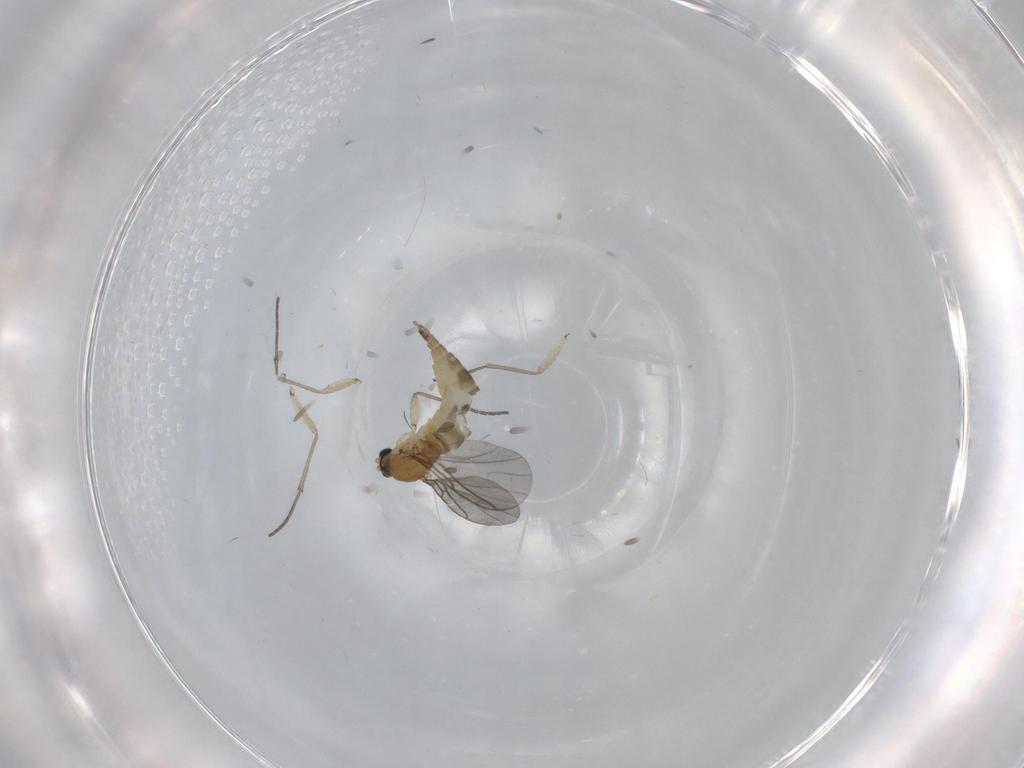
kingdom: Animalia
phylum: Arthropoda
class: Insecta
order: Diptera
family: Sciaridae
